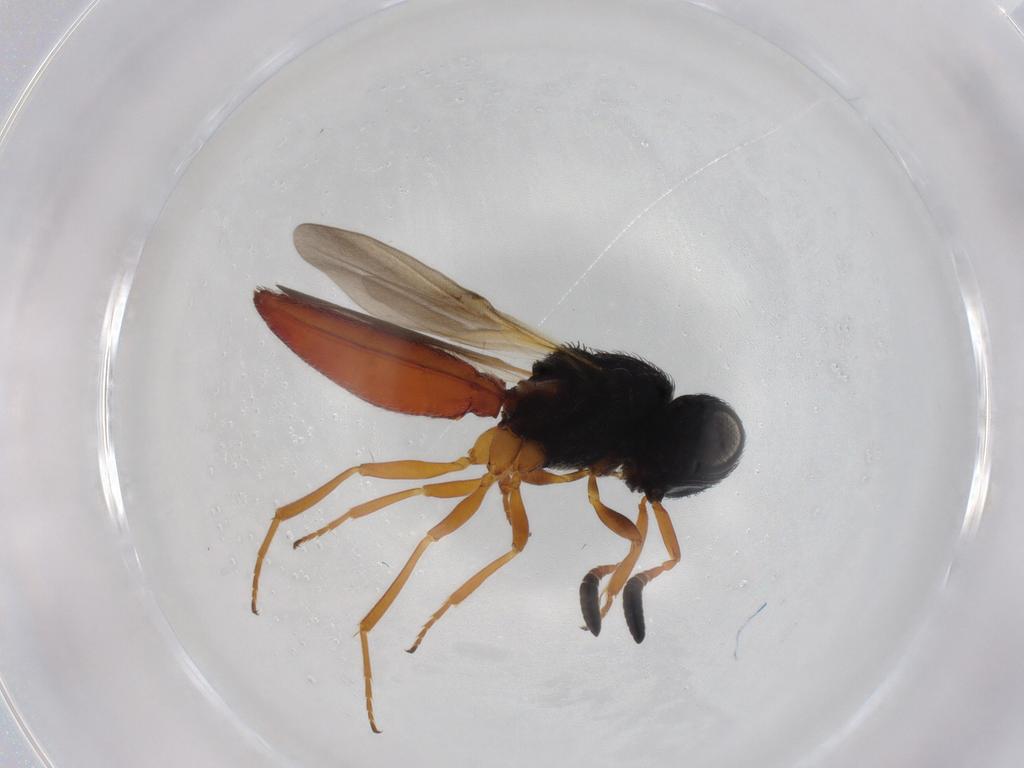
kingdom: Animalia
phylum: Arthropoda
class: Insecta
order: Hymenoptera
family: Scelionidae
